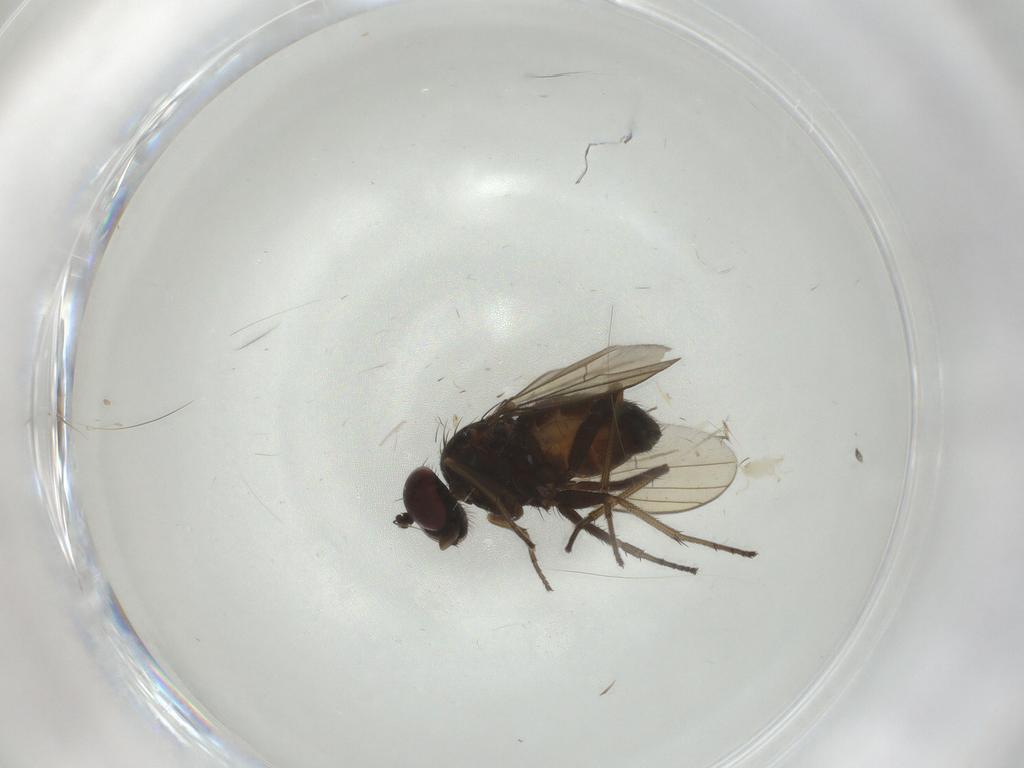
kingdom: Animalia
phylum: Arthropoda
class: Insecta
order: Diptera
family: Dolichopodidae
